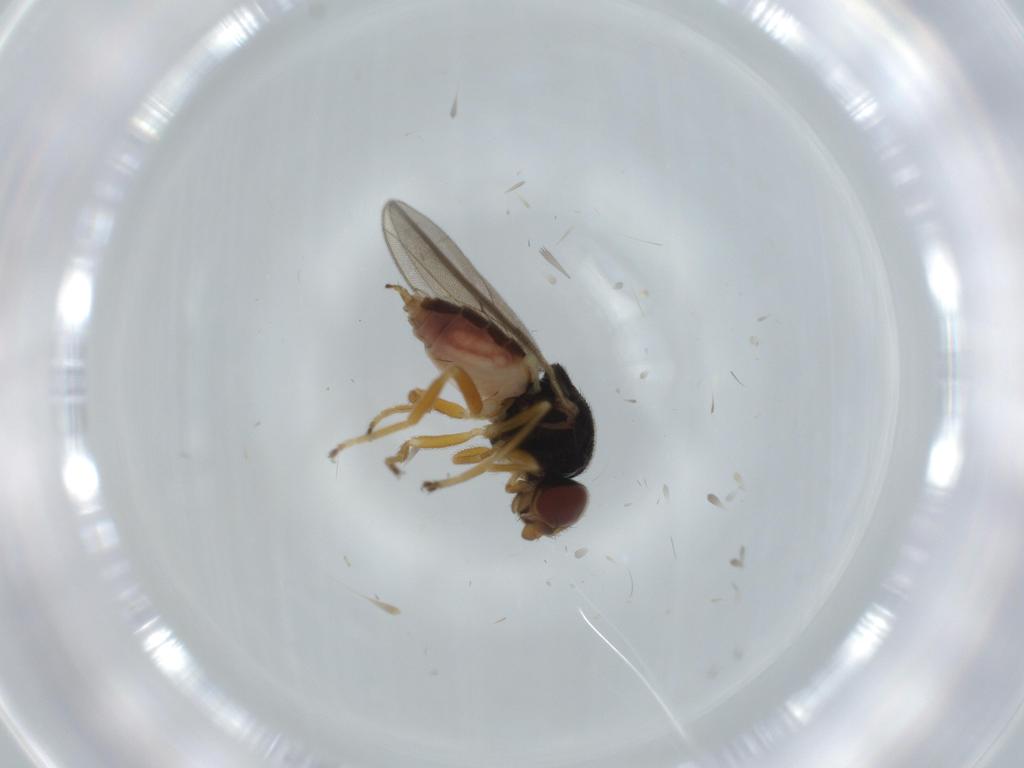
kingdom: Animalia
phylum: Arthropoda
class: Insecta
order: Diptera
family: Chloropidae
